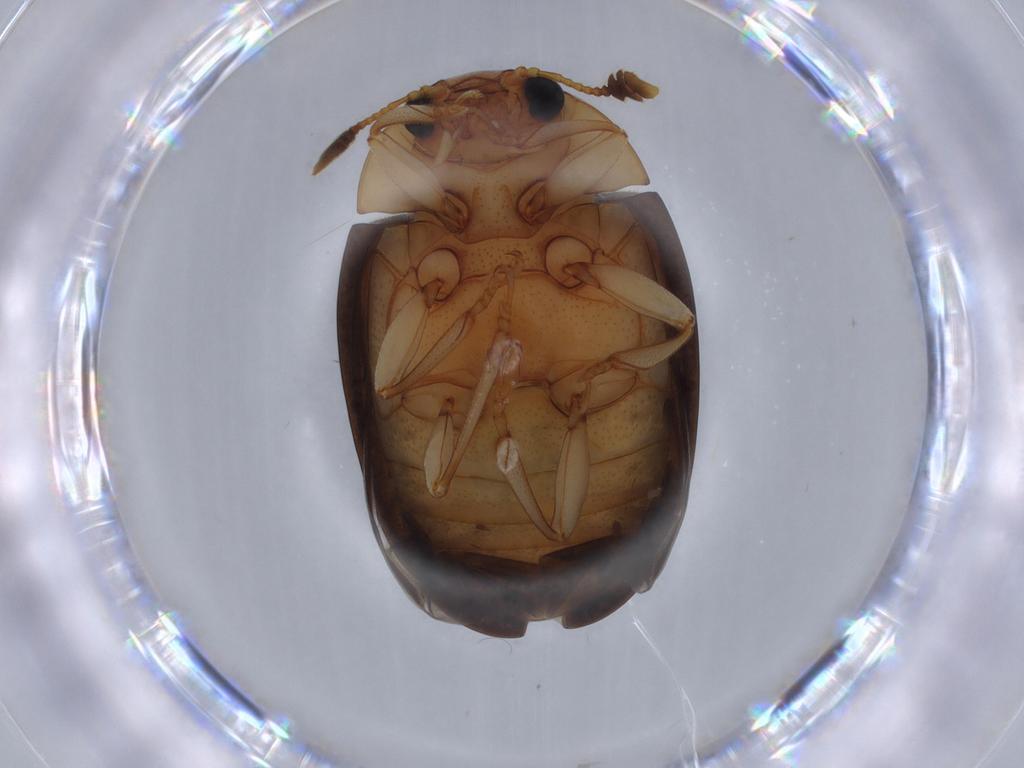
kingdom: Animalia
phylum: Arthropoda
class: Insecta
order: Coleoptera
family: Erotylidae
